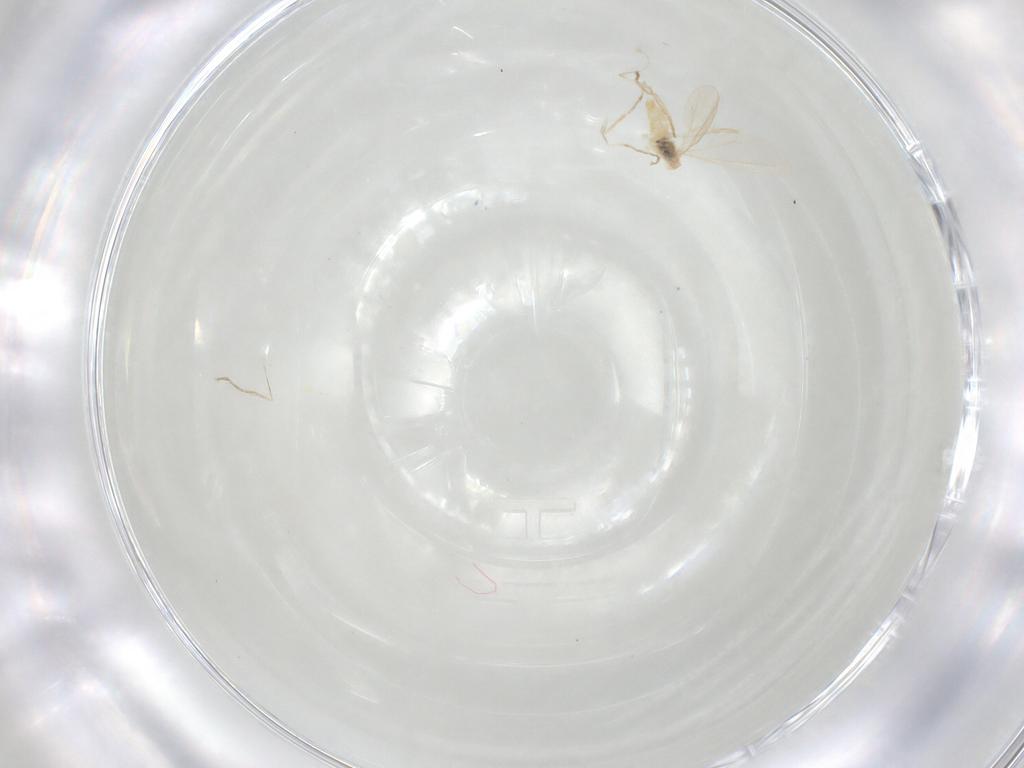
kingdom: Animalia
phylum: Arthropoda
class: Insecta
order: Diptera
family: Cecidomyiidae
